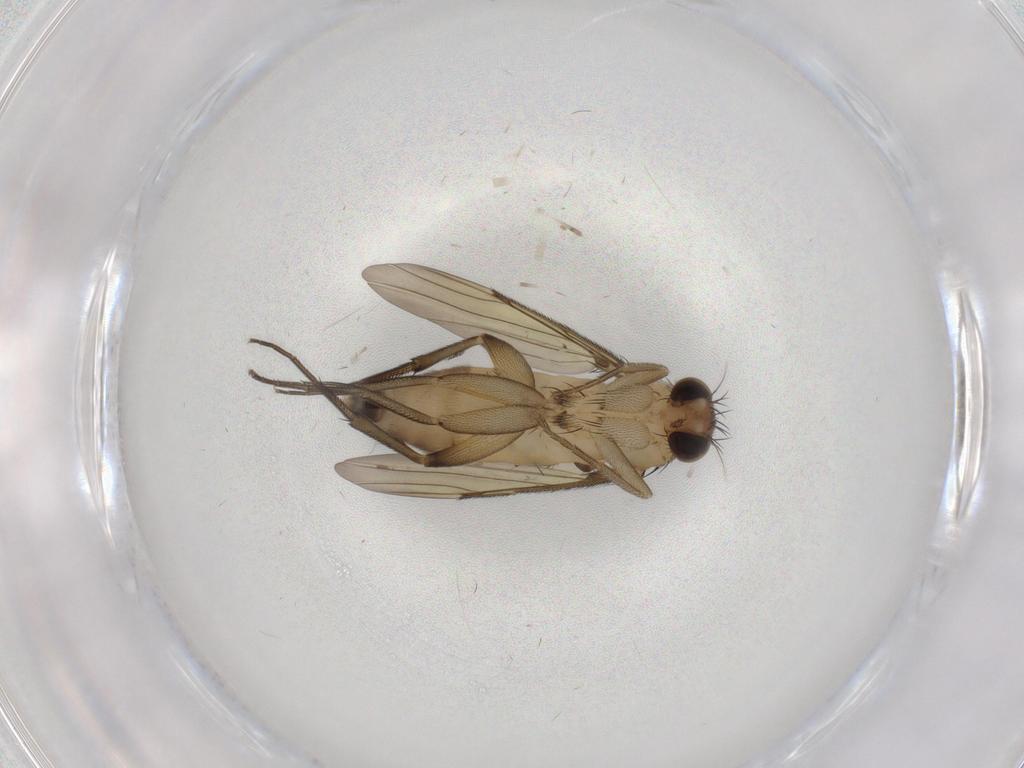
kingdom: Animalia
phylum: Arthropoda
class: Insecta
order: Diptera
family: Phoridae
